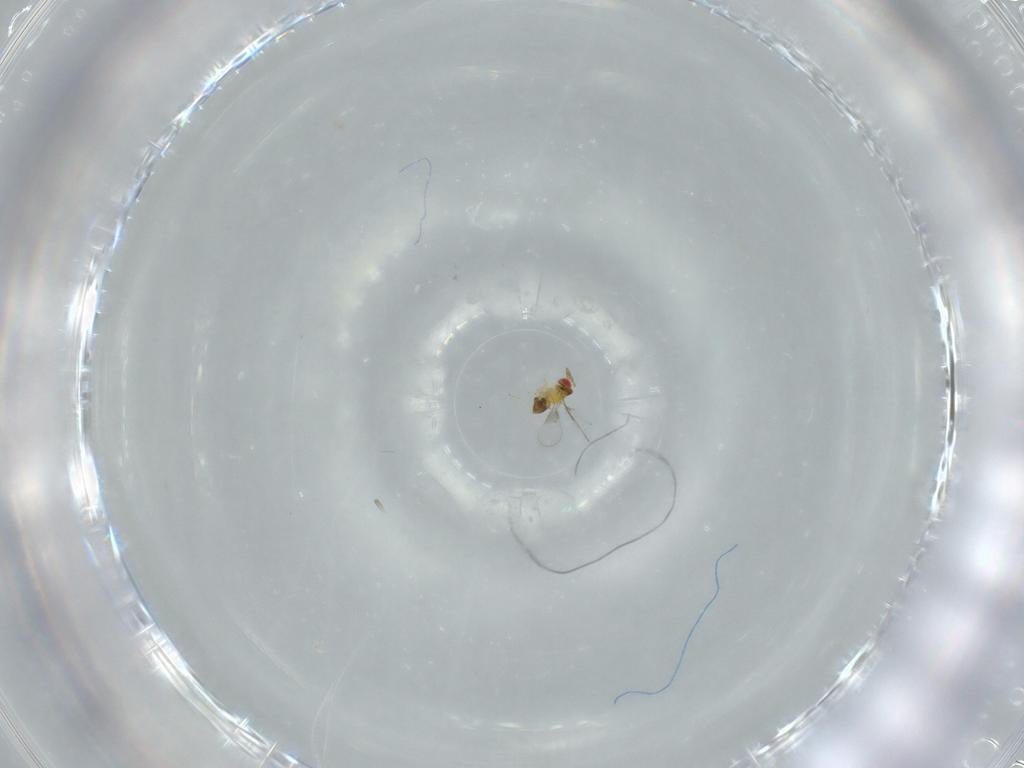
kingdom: Animalia
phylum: Arthropoda
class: Insecta
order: Hymenoptera
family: Trichogrammatidae
